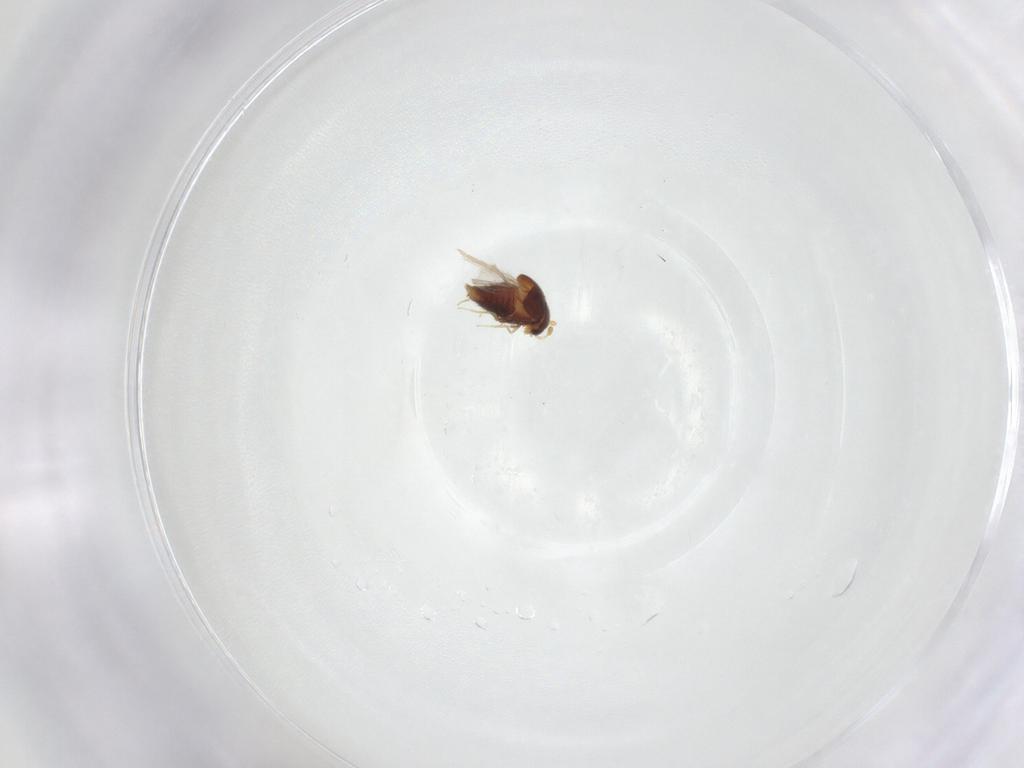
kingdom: Animalia
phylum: Arthropoda
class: Insecta
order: Coleoptera
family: Staphylinidae
